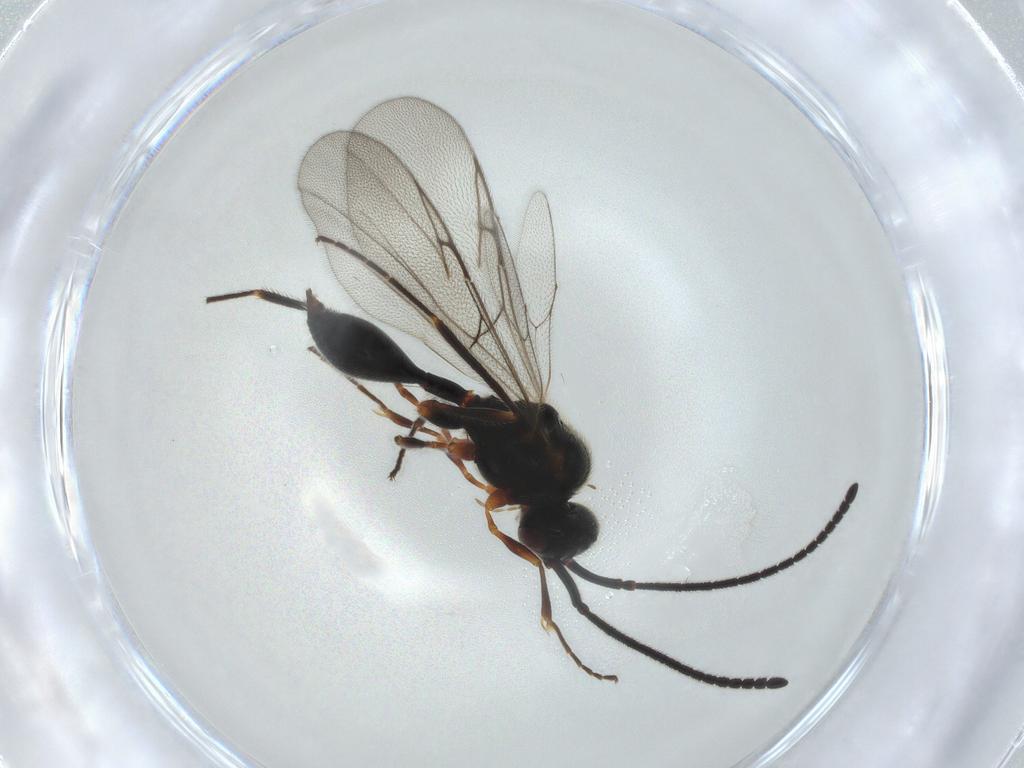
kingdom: Animalia
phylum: Arthropoda
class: Insecta
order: Hymenoptera
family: Diapriidae
